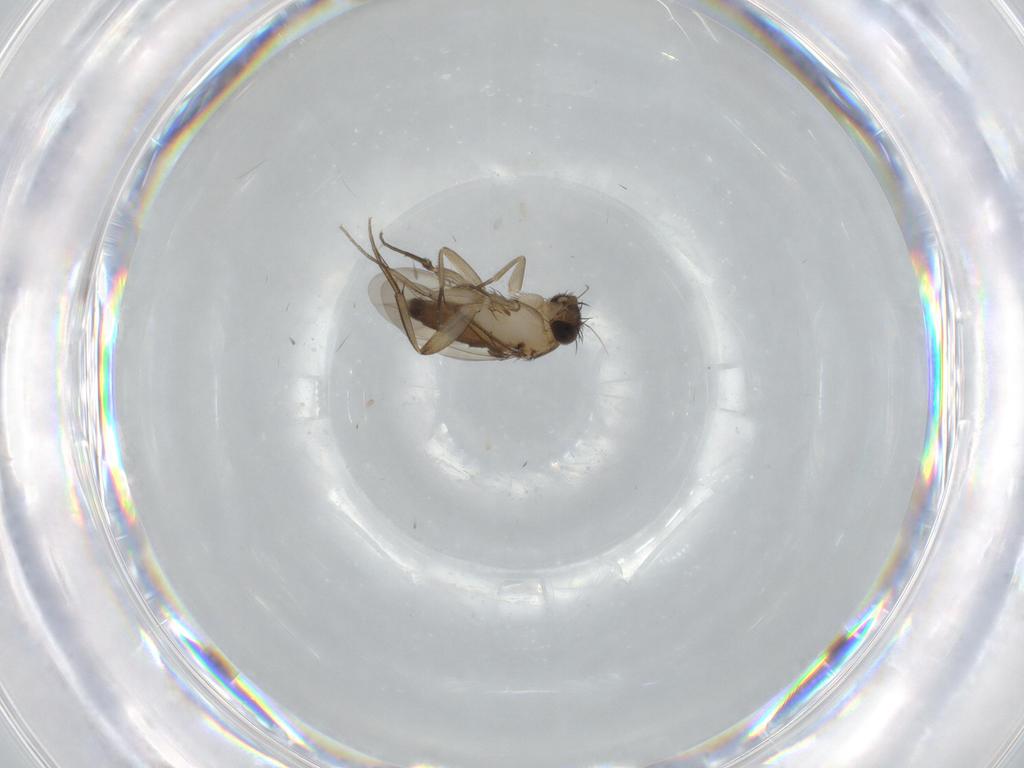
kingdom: Animalia
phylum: Arthropoda
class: Insecta
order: Diptera
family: Phoridae
